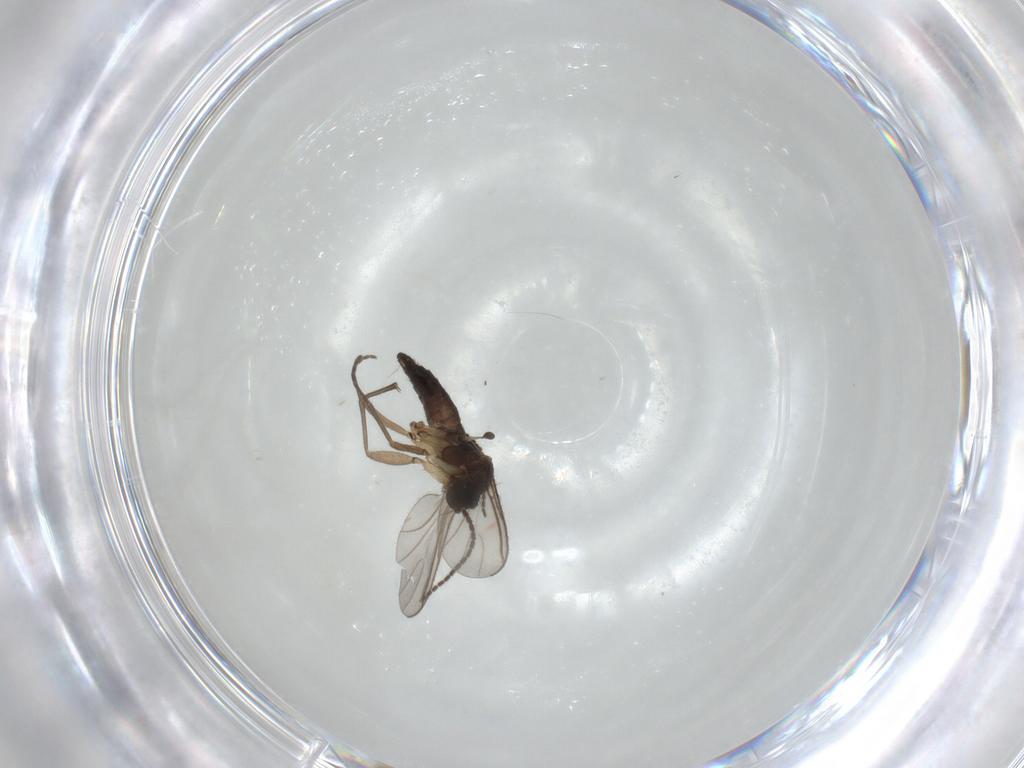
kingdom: Animalia
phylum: Arthropoda
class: Insecta
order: Diptera
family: Sciaridae
